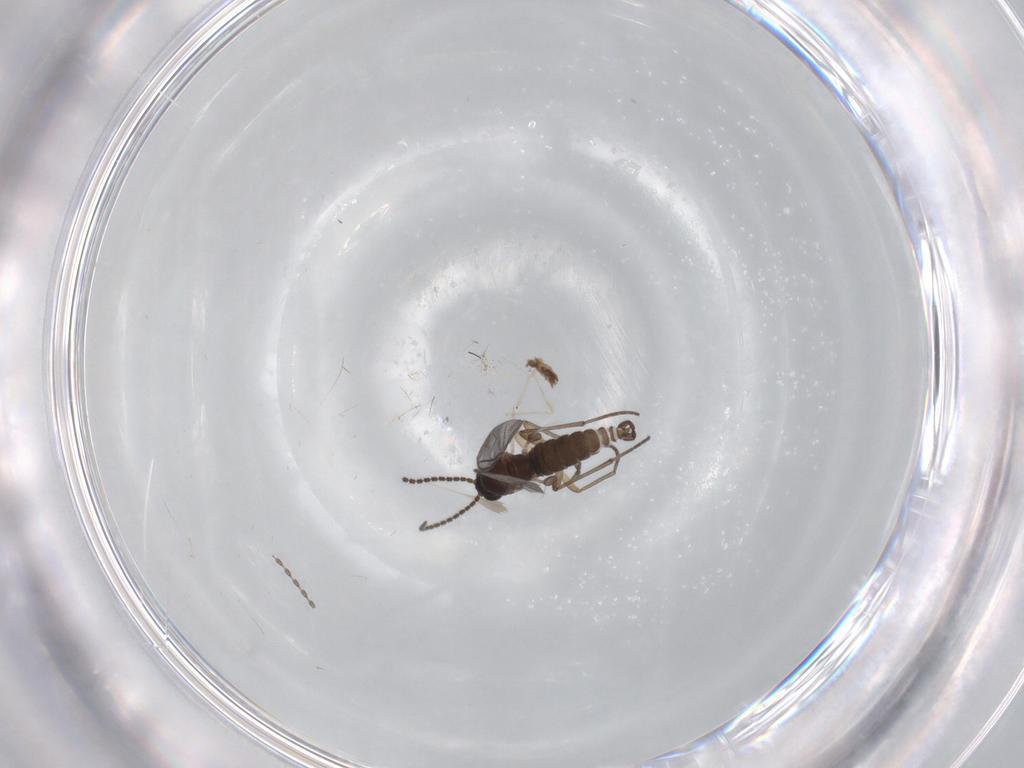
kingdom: Animalia
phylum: Arthropoda
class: Insecta
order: Diptera
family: Sciaridae
